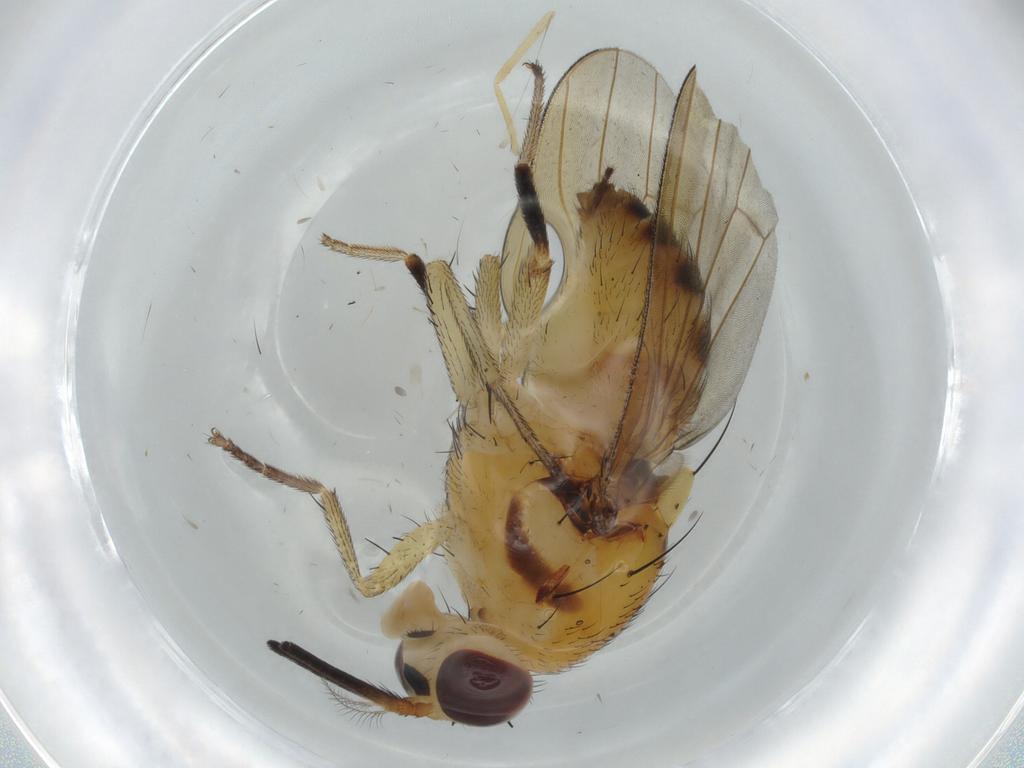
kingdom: Animalia
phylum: Arthropoda
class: Insecta
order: Diptera
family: Lauxaniidae
